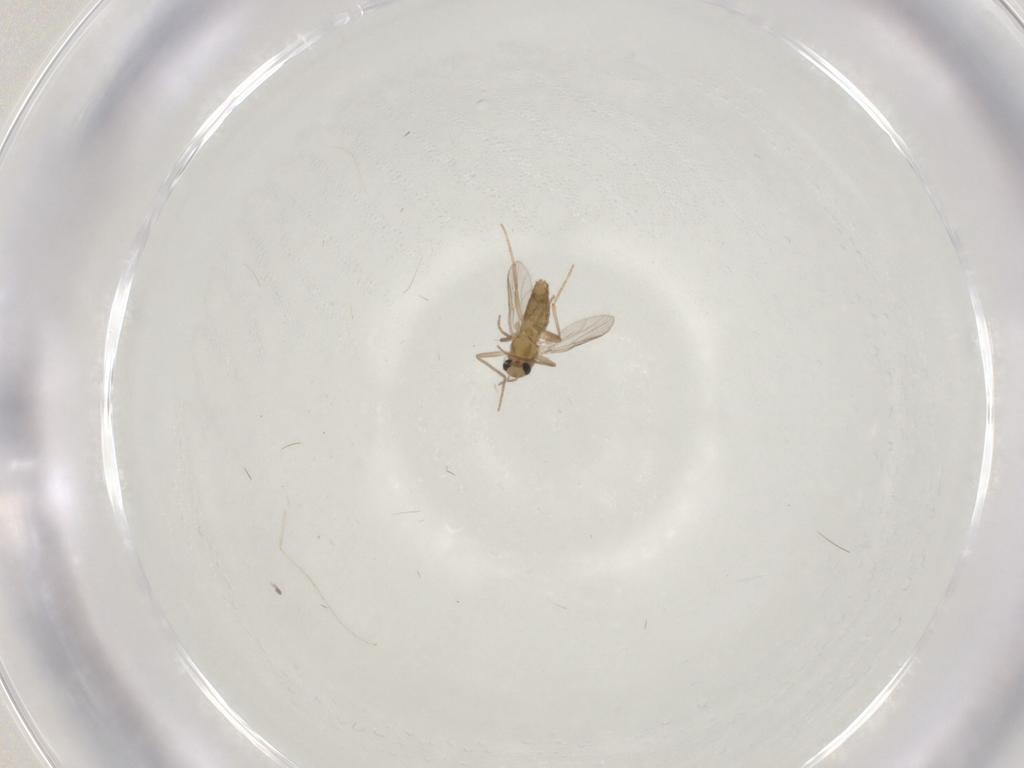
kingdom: Animalia
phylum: Arthropoda
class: Insecta
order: Diptera
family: Chironomidae
